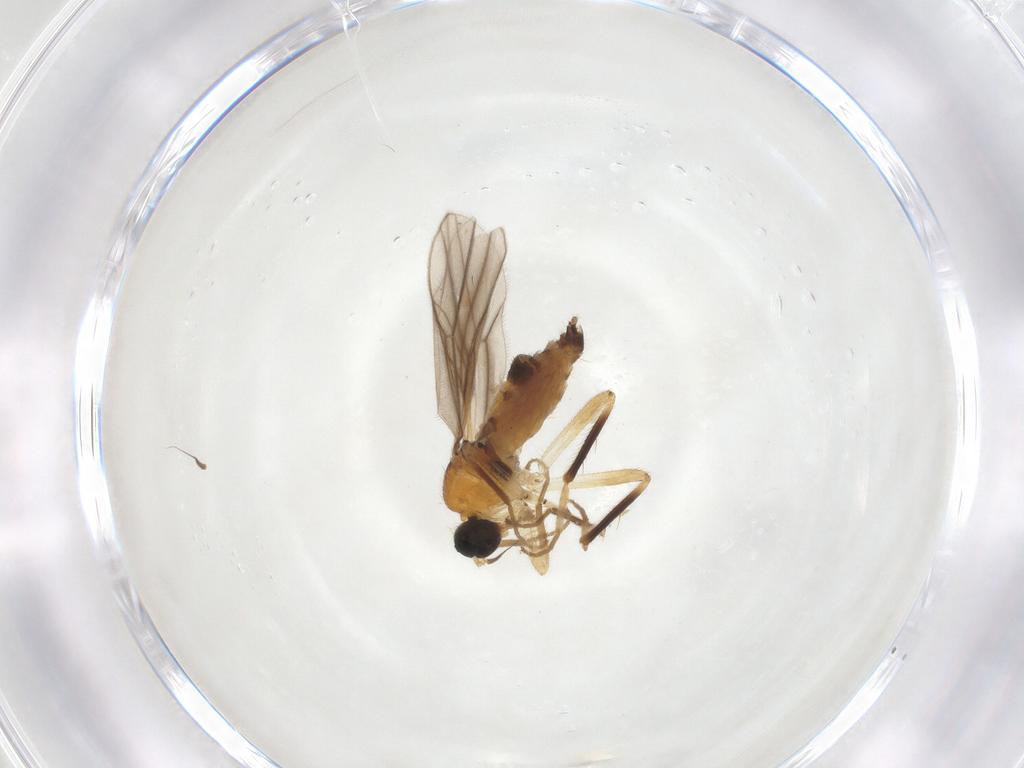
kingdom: Animalia
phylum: Arthropoda
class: Insecta
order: Diptera
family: Hybotidae
